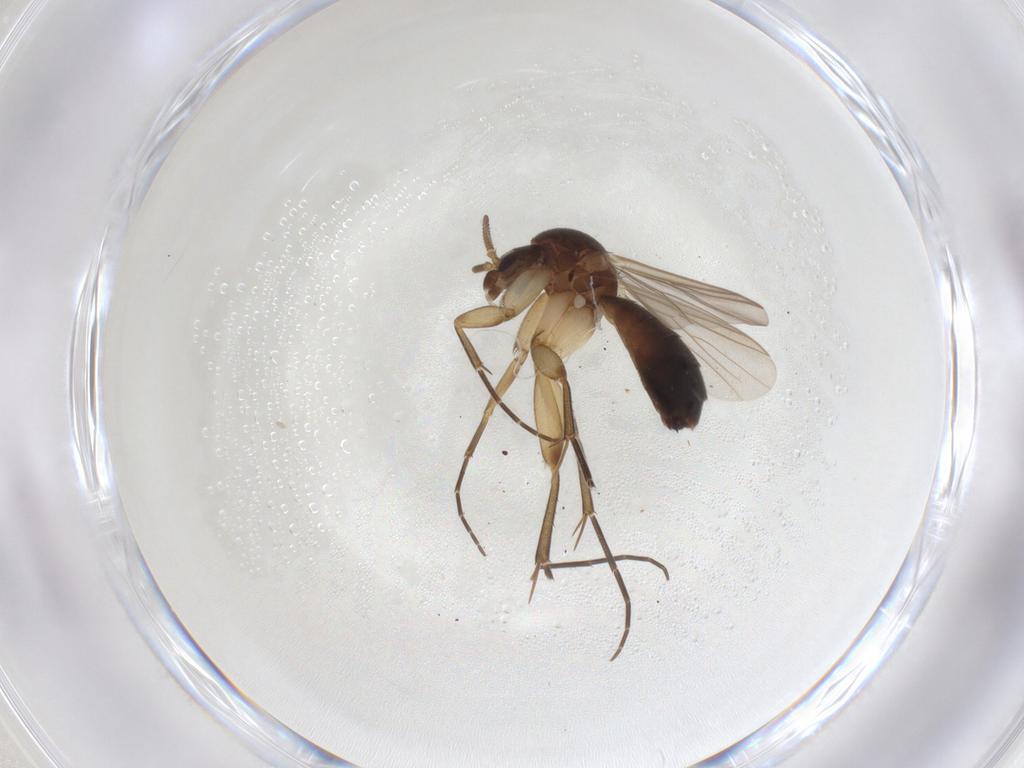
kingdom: Animalia
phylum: Arthropoda
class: Insecta
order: Diptera
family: Mycetophilidae
